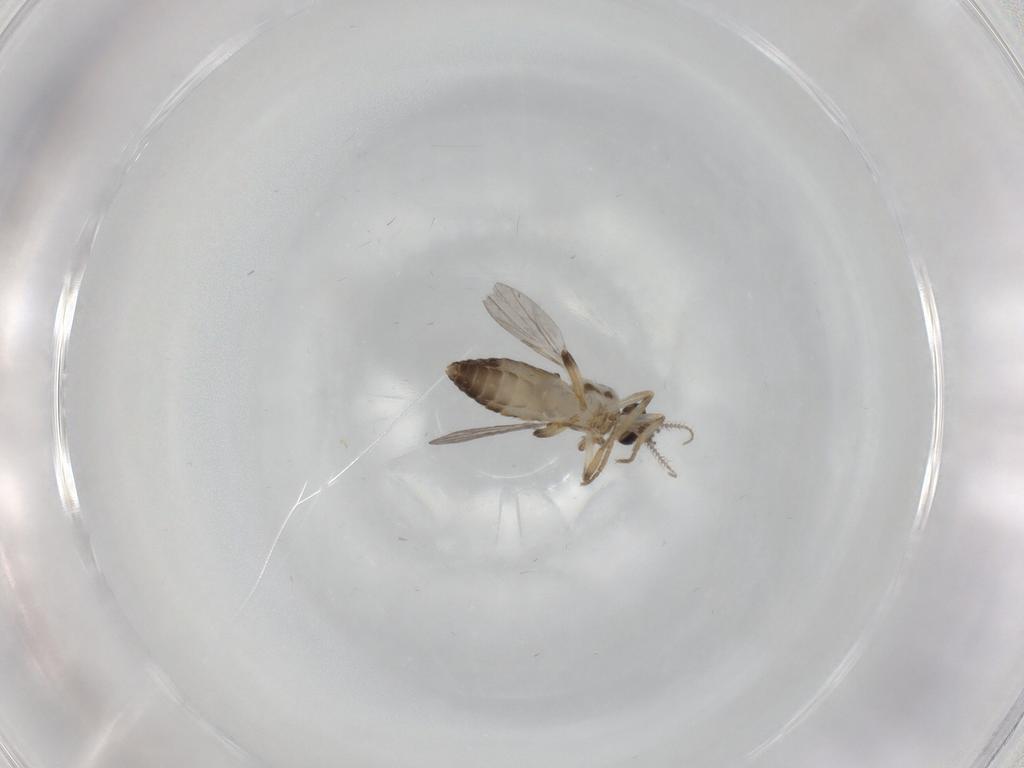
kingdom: Animalia
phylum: Arthropoda
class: Insecta
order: Diptera
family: Ceratopogonidae
